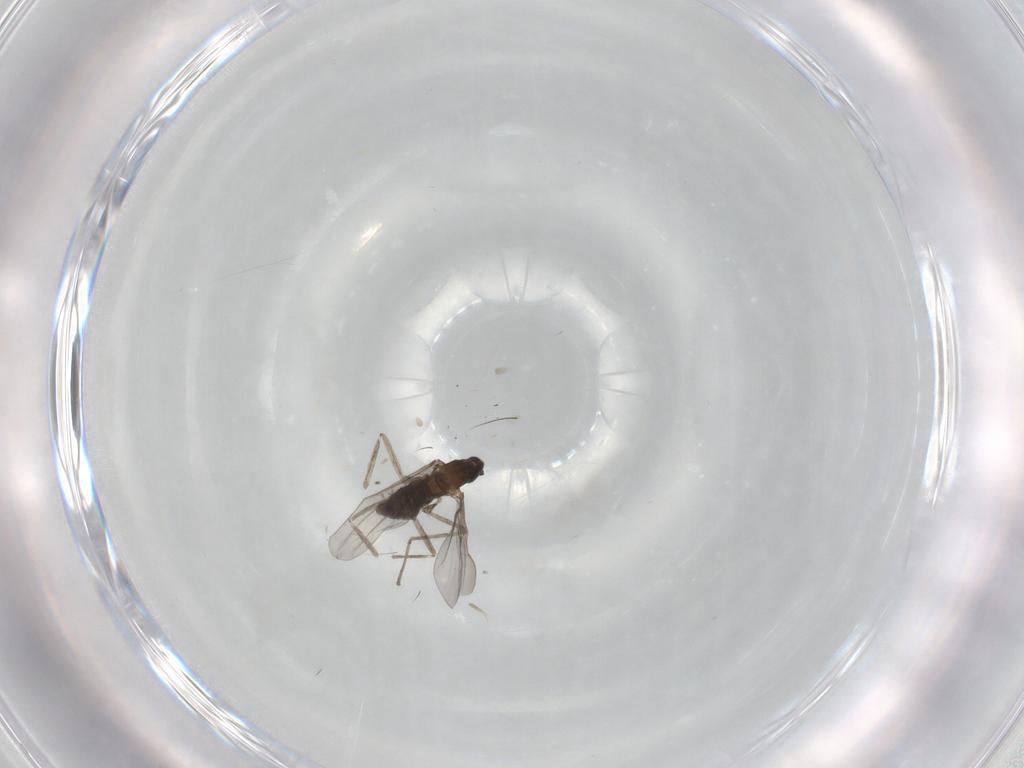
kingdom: Animalia
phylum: Arthropoda
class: Insecta
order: Diptera
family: Cecidomyiidae
